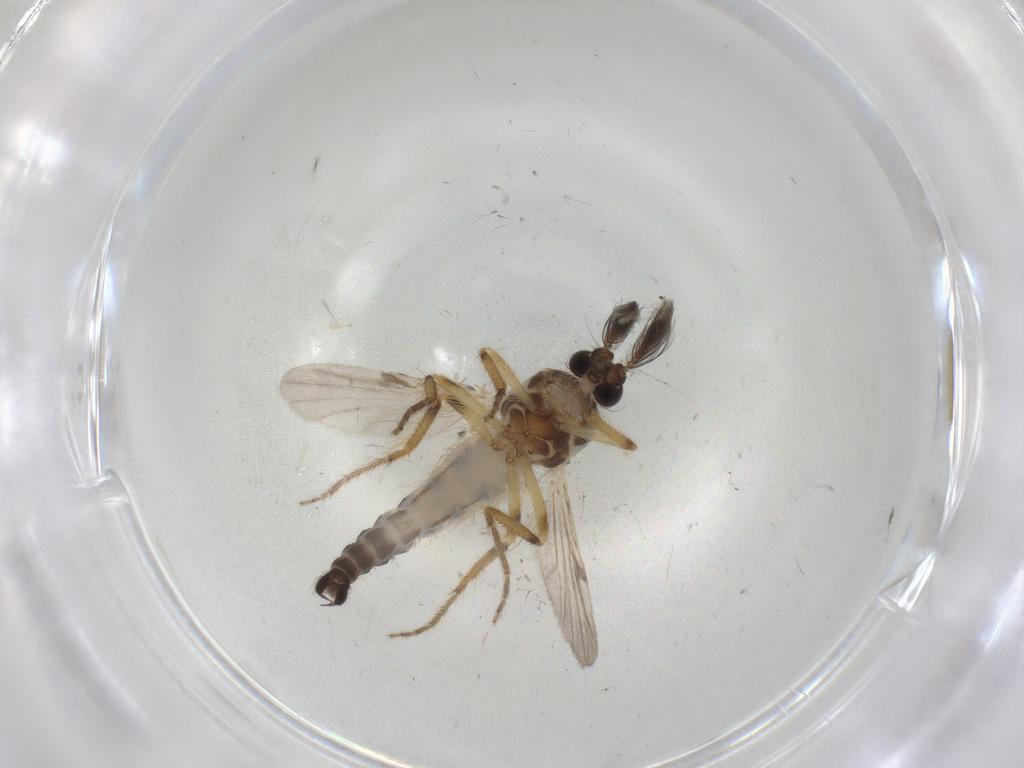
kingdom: Animalia
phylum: Arthropoda
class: Insecta
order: Diptera
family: Ceratopogonidae
